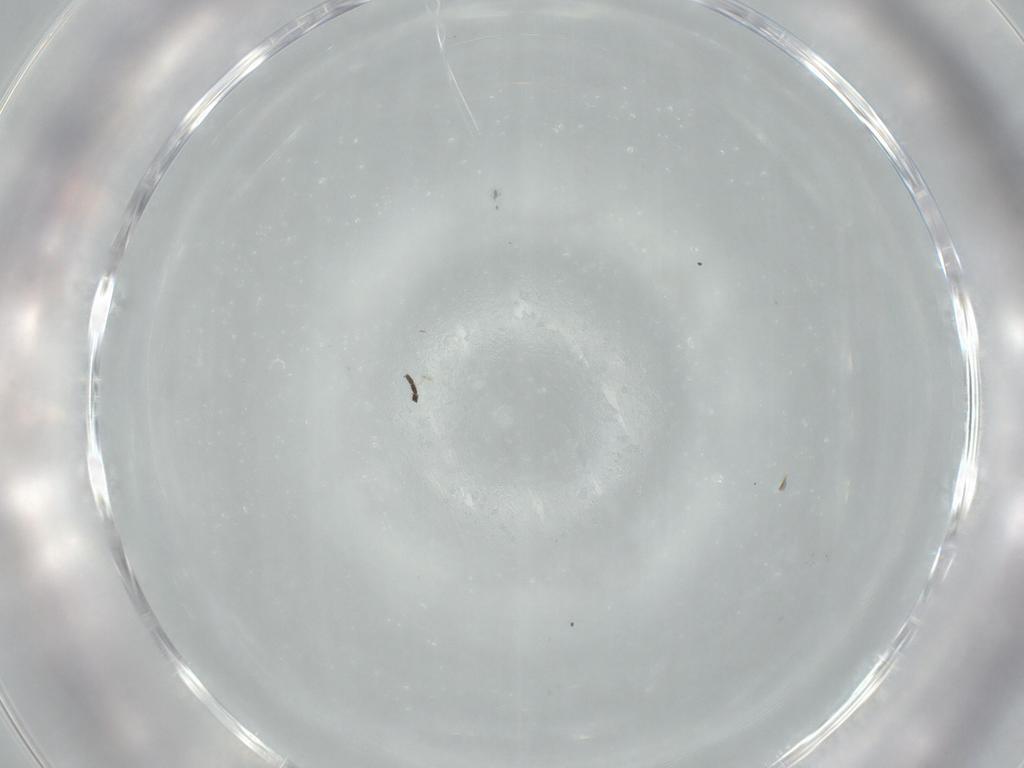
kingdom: Animalia
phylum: Arthropoda
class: Insecta
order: Diptera
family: Sciaridae
